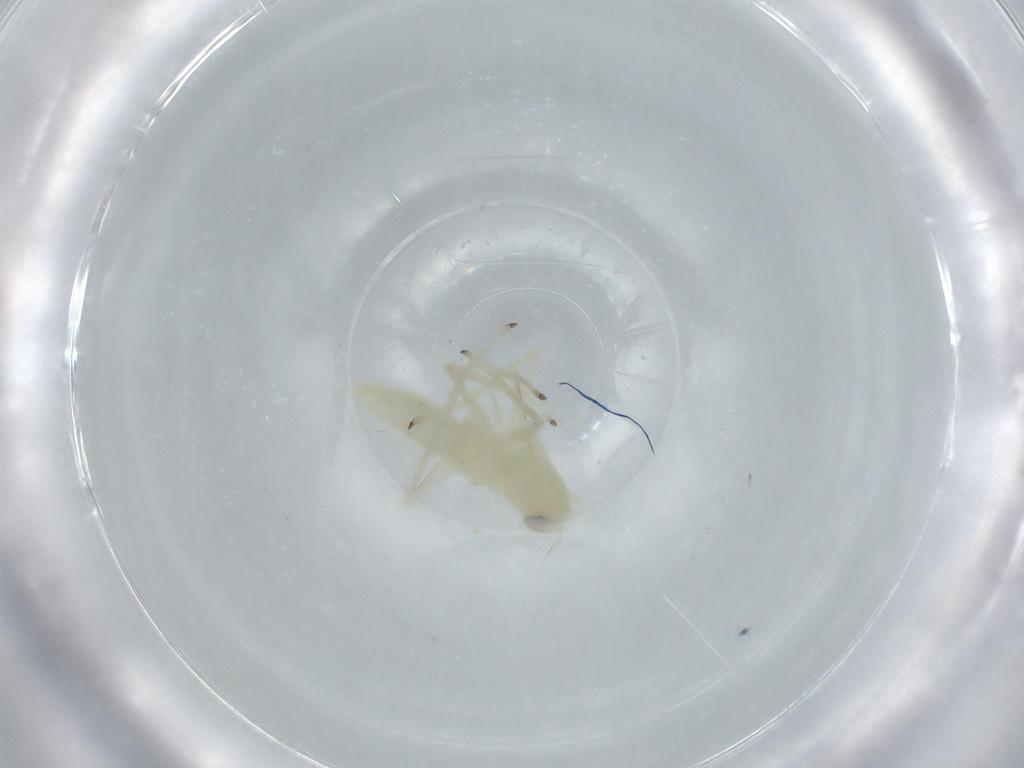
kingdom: Animalia
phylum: Arthropoda
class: Insecta
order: Hemiptera
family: Cicadellidae
